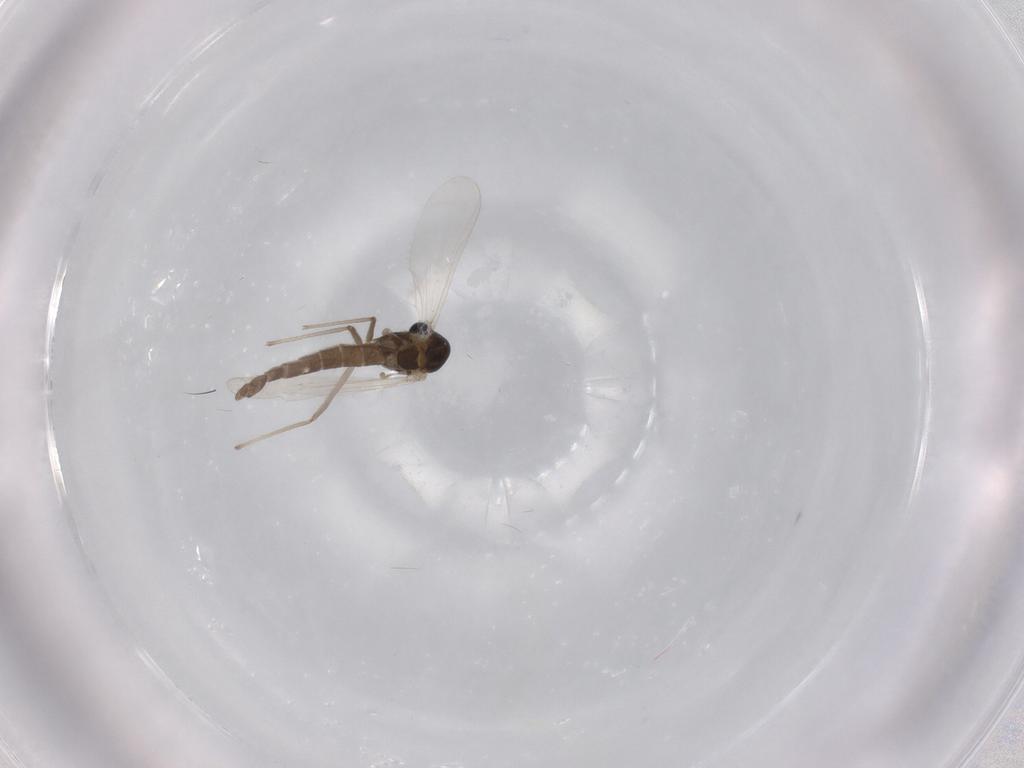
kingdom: Animalia
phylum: Arthropoda
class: Insecta
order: Diptera
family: Chironomidae
